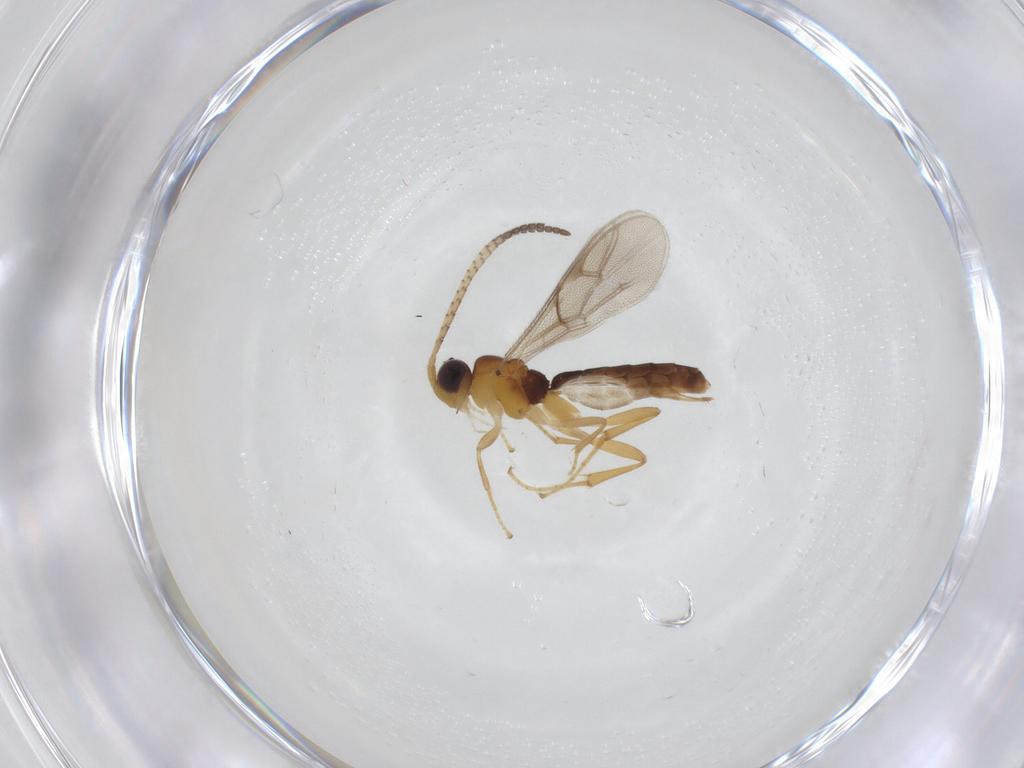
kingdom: Animalia
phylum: Arthropoda
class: Insecta
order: Hymenoptera
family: Ichneumonidae
